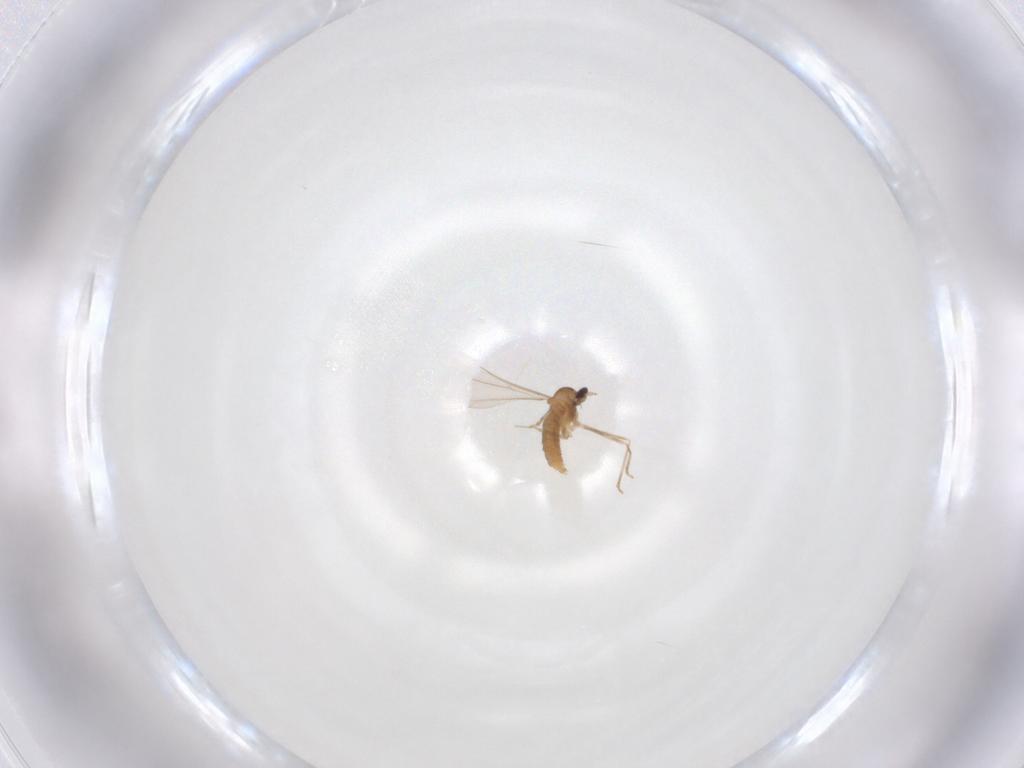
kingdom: Animalia
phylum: Arthropoda
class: Insecta
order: Diptera
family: Cecidomyiidae
